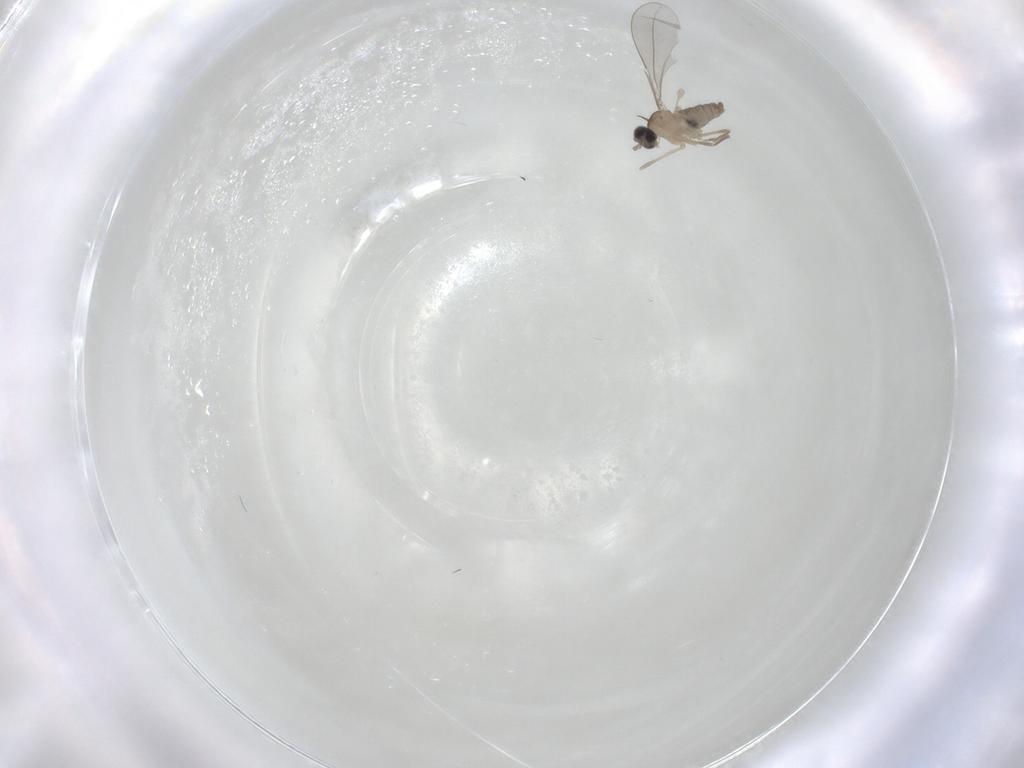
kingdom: Animalia
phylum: Arthropoda
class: Insecta
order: Diptera
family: Cecidomyiidae
